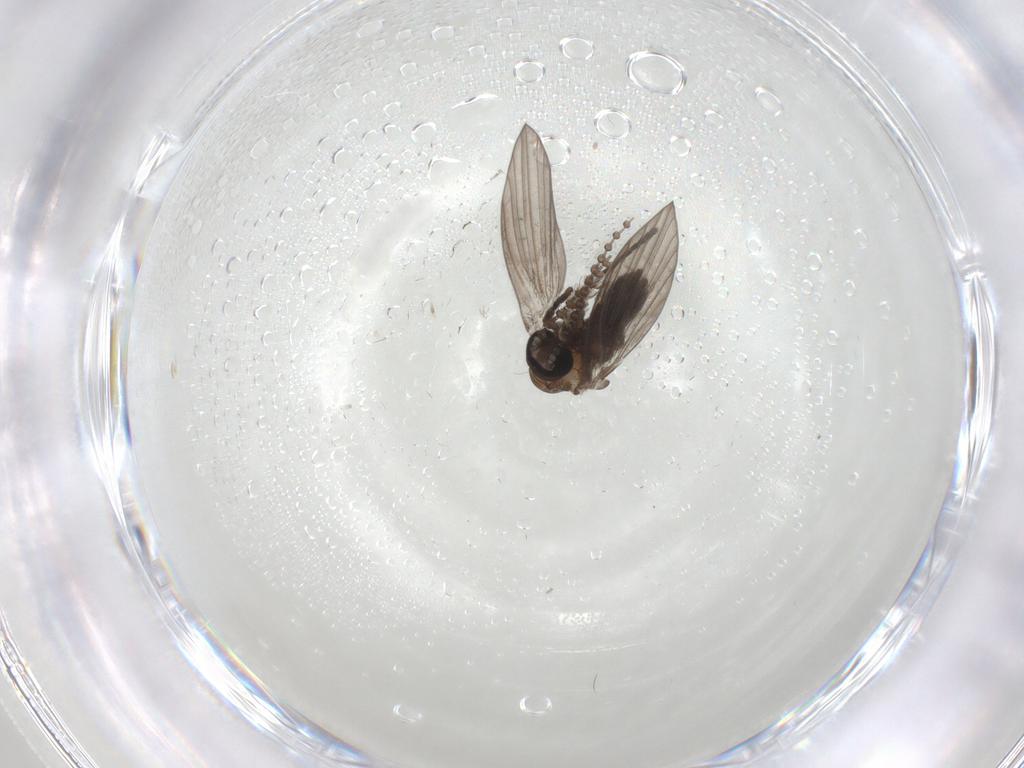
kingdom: Animalia
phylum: Arthropoda
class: Insecta
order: Diptera
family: Psychodidae
